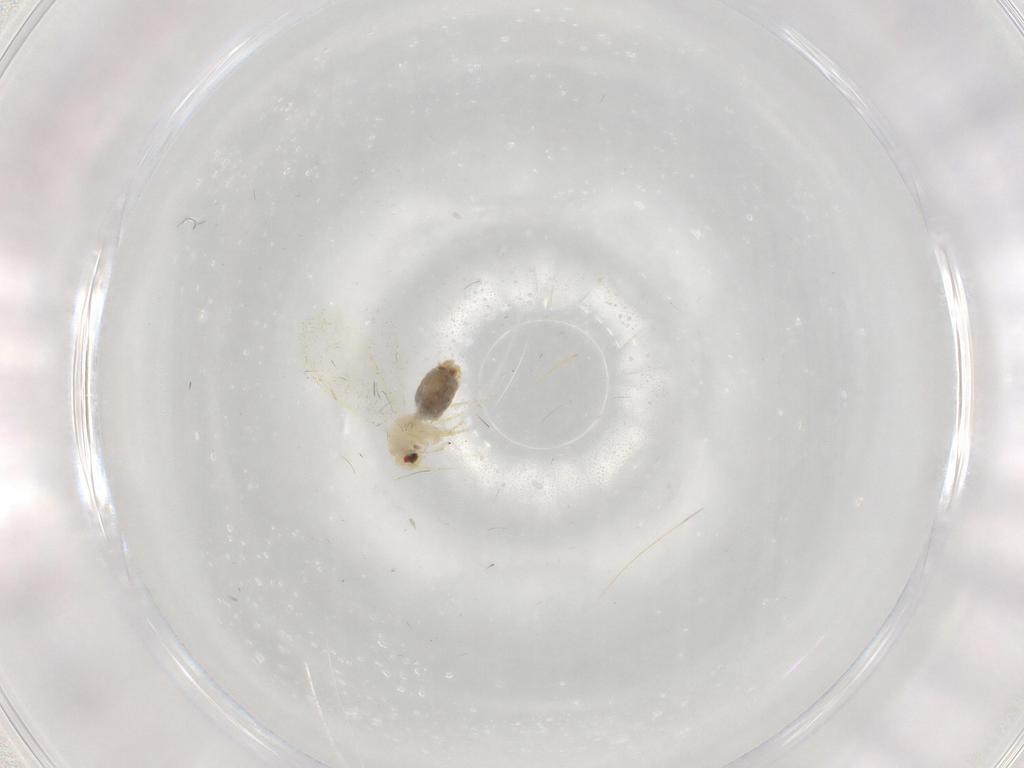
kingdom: Animalia
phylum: Arthropoda
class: Insecta
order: Hemiptera
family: Aleyrodidae
